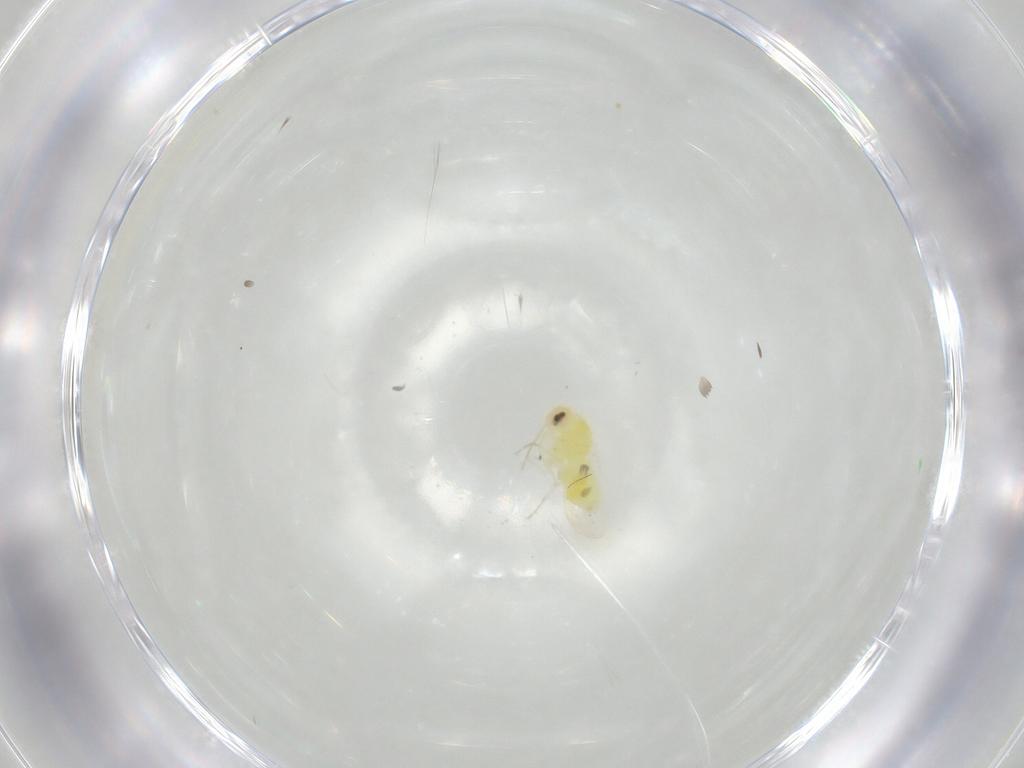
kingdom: Animalia
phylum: Arthropoda
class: Insecta
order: Hemiptera
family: Aleyrodidae
